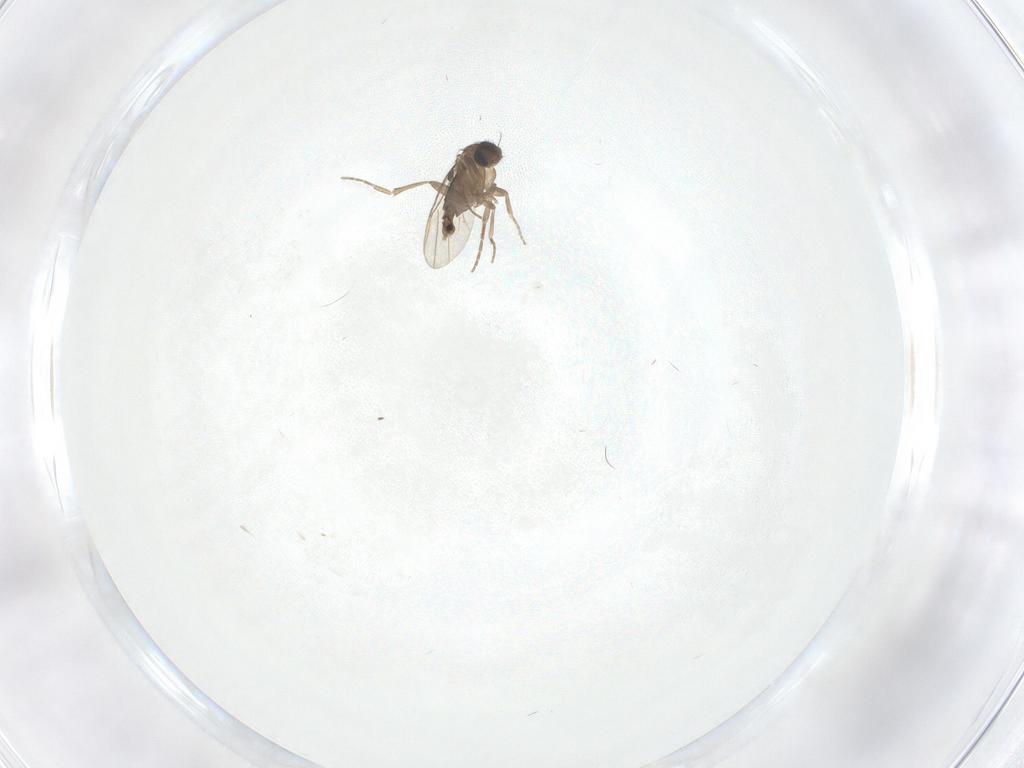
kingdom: Animalia
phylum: Arthropoda
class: Insecta
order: Diptera
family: Phoridae
